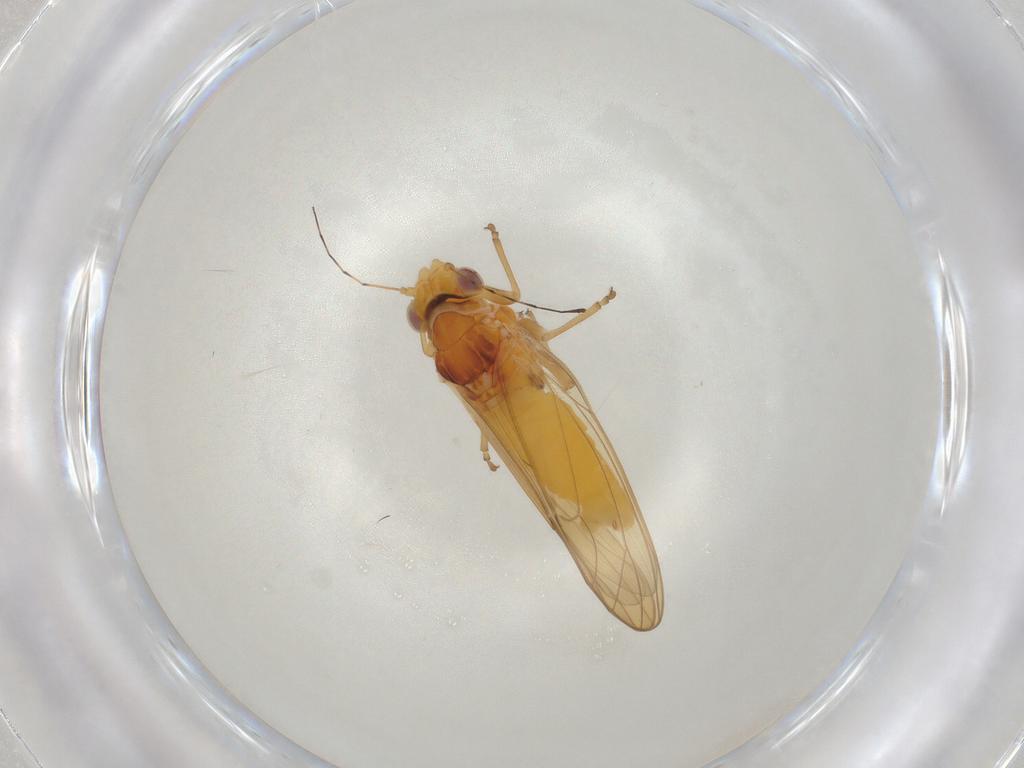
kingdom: Animalia
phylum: Arthropoda
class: Insecta
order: Hemiptera
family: Psylloidea_incertae_sedis
